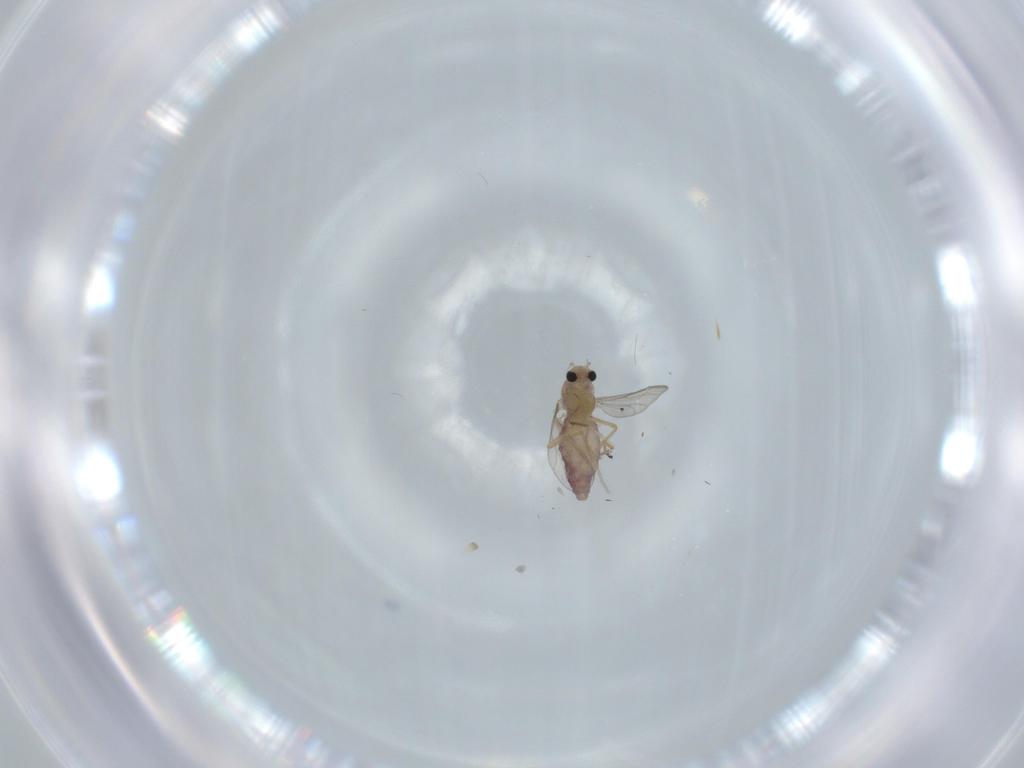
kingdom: Animalia
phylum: Arthropoda
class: Insecta
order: Diptera
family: Chironomidae
